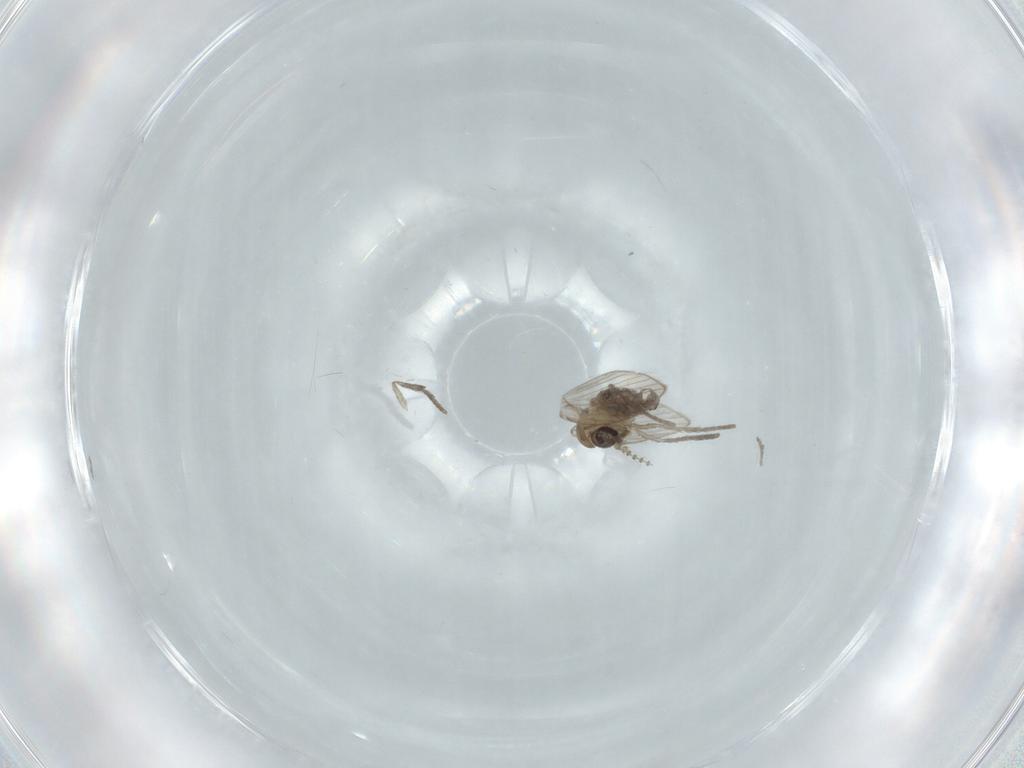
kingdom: Animalia
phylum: Arthropoda
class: Insecta
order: Diptera
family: Psychodidae
